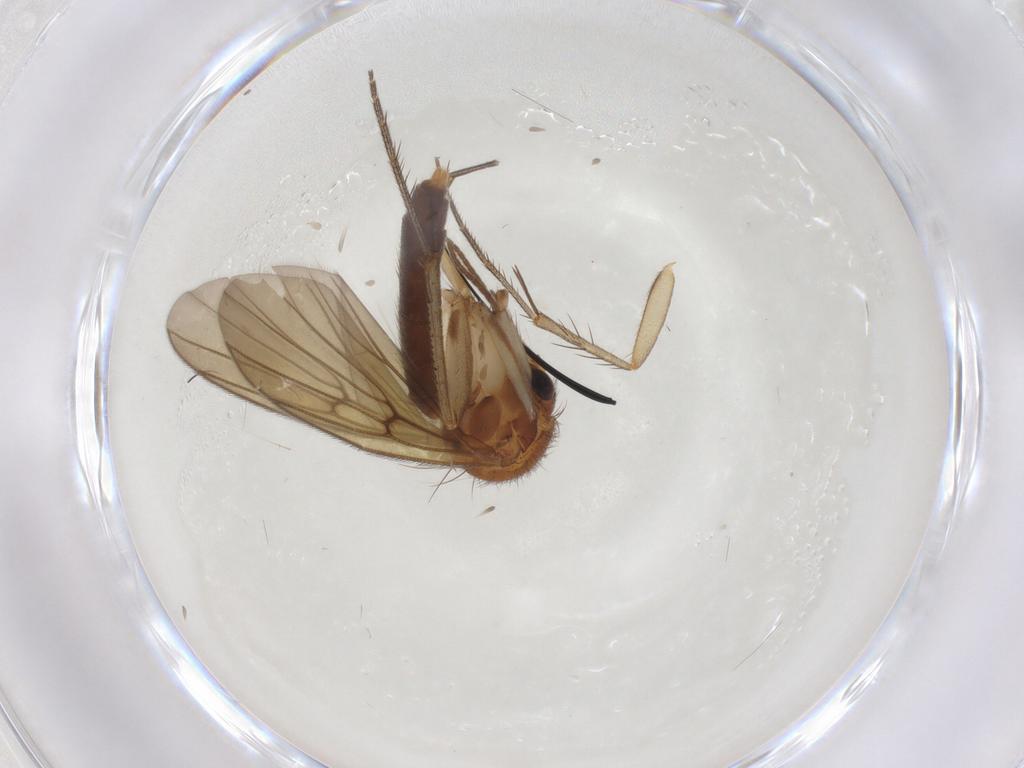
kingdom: Animalia
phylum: Arthropoda
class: Insecta
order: Diptera
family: Mycetophilidae
